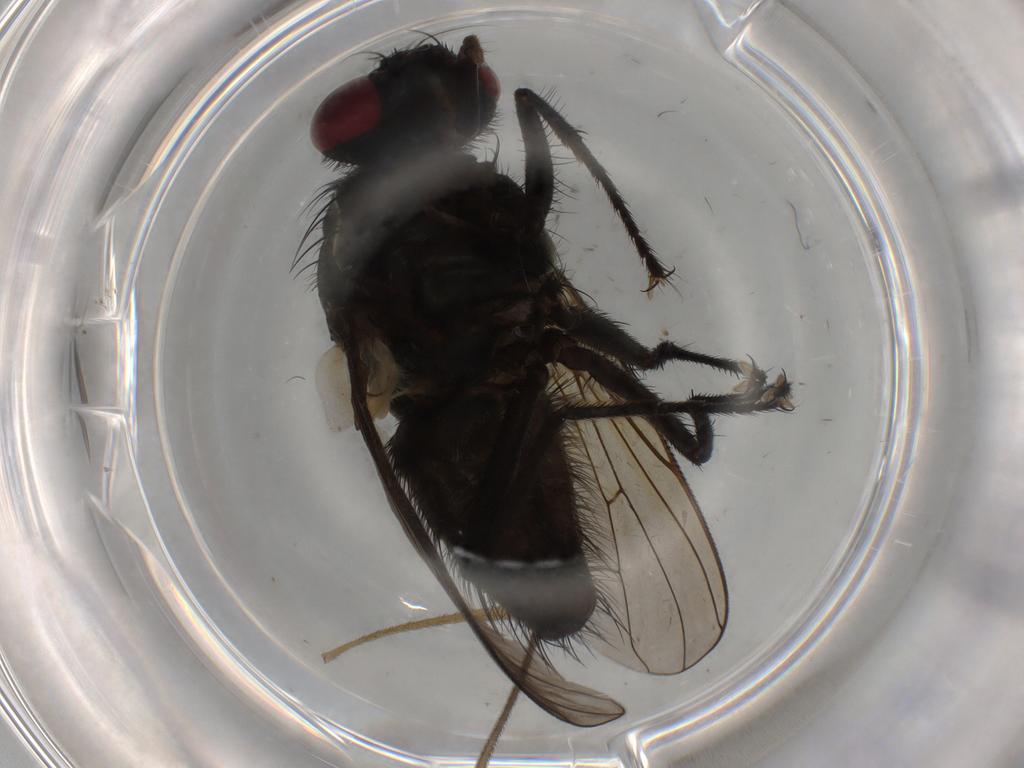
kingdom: Animalia
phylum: Arthropoda
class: Insecta
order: Diptera
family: Muscidae
